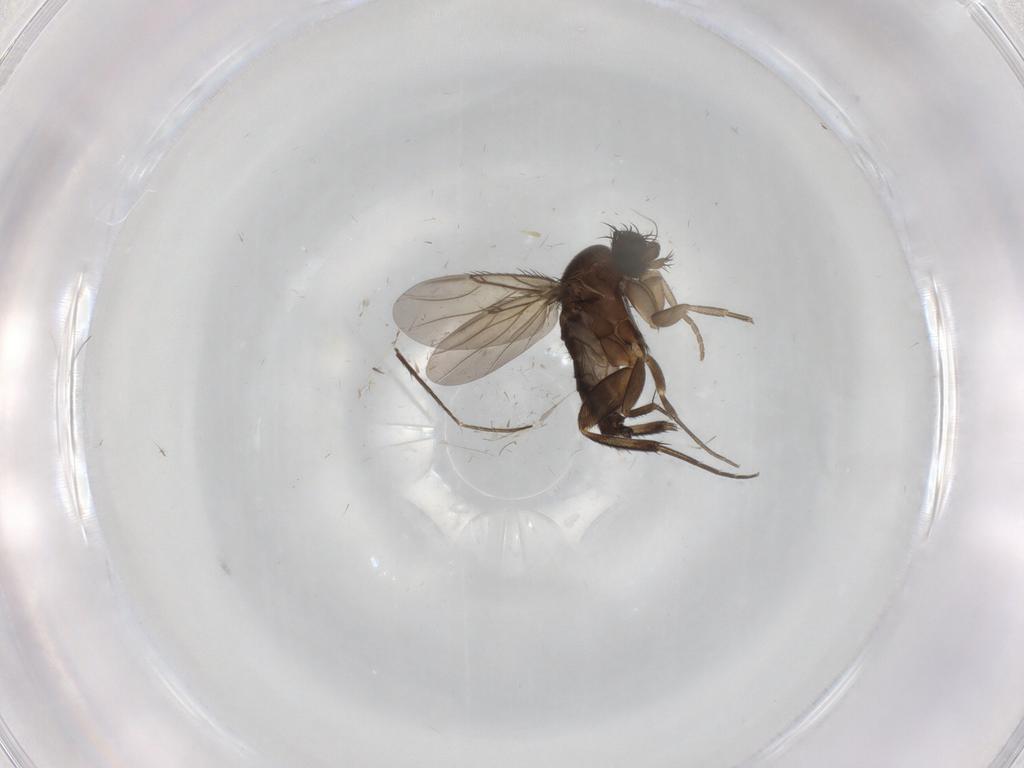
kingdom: Animalia
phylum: Arthropoda
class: Insecta
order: Diptera
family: Phoridae
